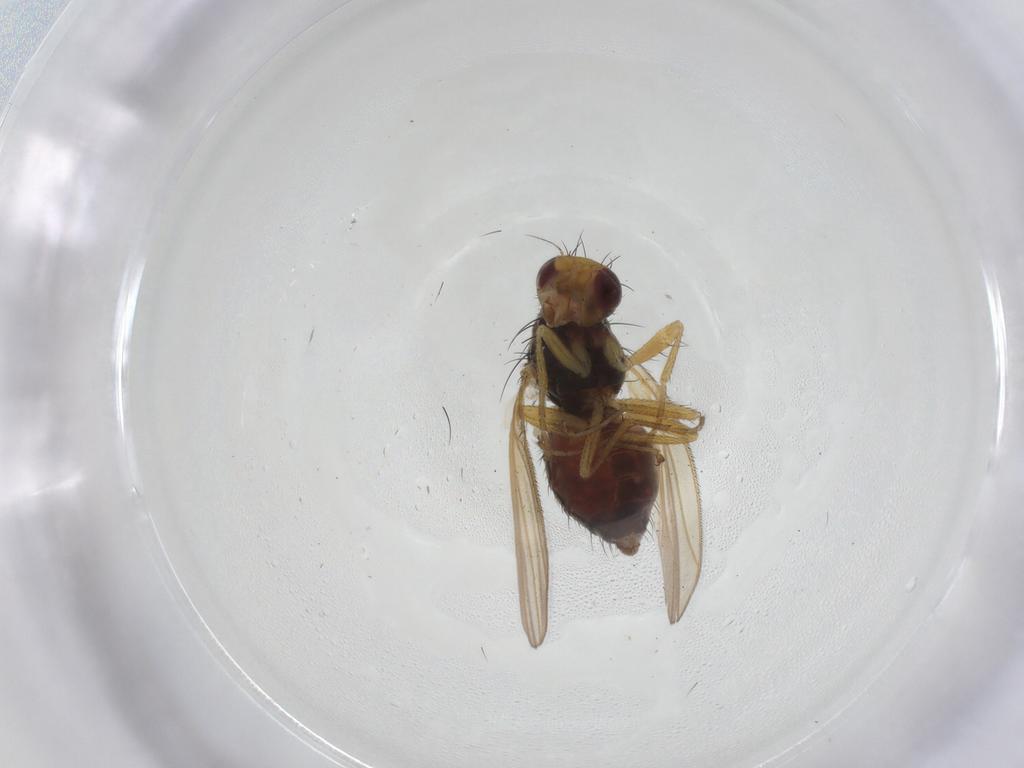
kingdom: Animalia
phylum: Arthropoda
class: Insecta
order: Diptera
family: Heleomyzidae
